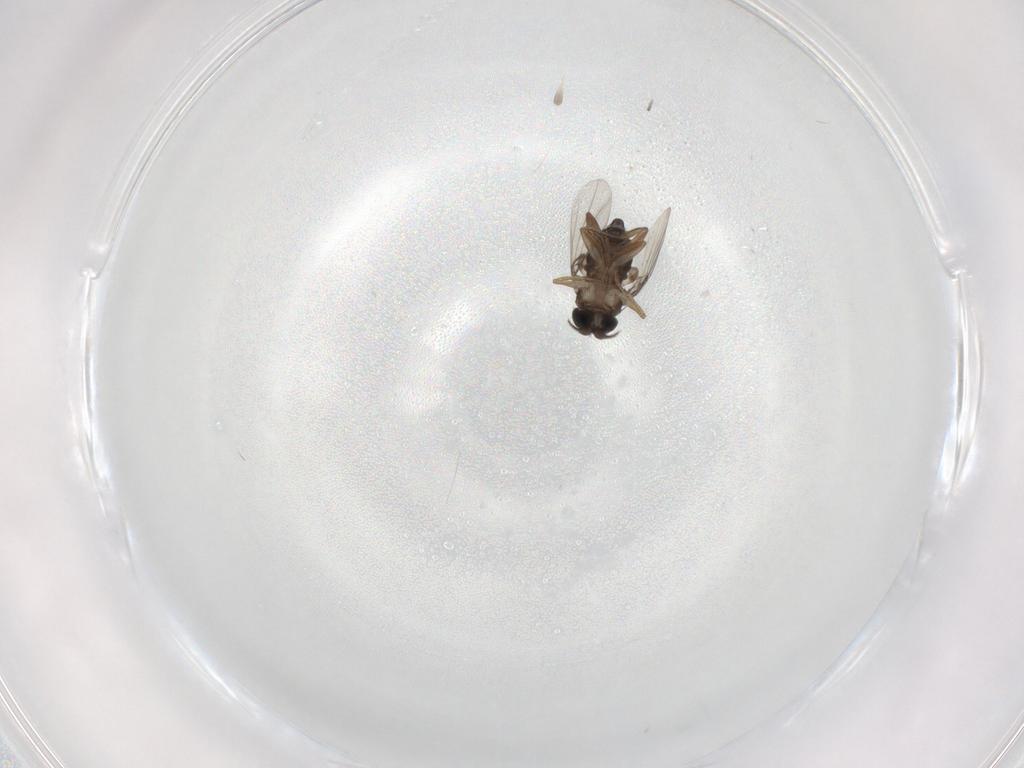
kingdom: Animalia
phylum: Arthropoda
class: Insecta
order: Diptera
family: Phoridae
